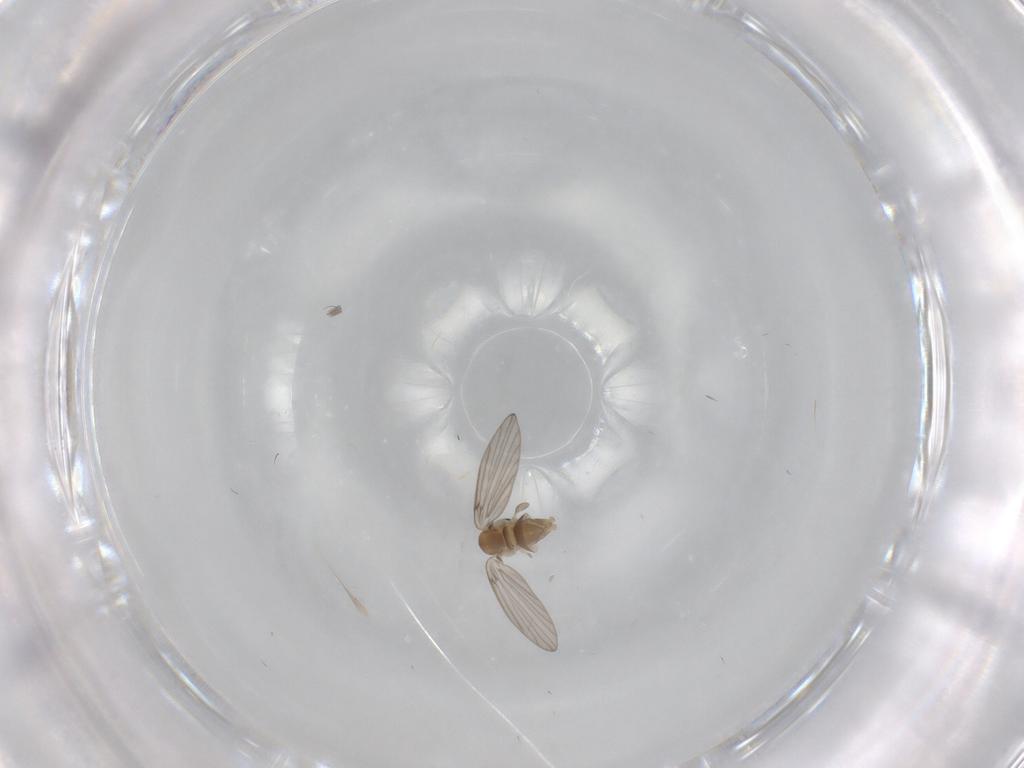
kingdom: Animalia
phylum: Arthropoda
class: Insecta
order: Diptera
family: Psychodidae
